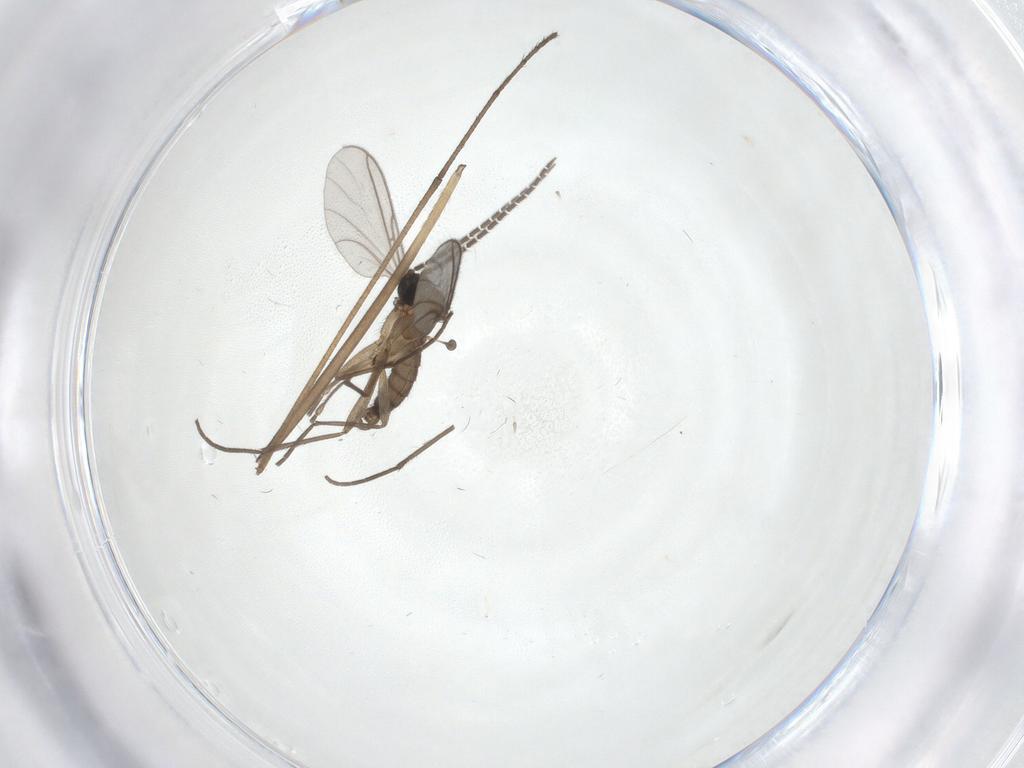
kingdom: Animalia
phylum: Arthropoda
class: Insecta
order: Diptera
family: Sciaridae
